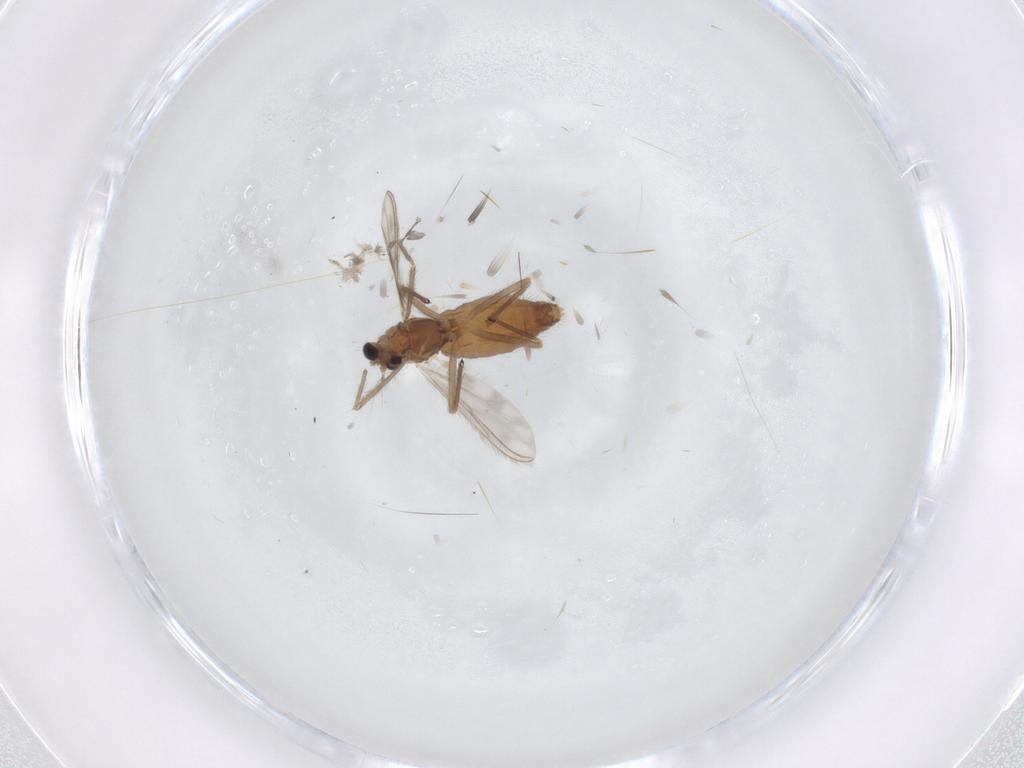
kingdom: Animalia
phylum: Arthropoda
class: Insecta
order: Diptera
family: Chironomidae
